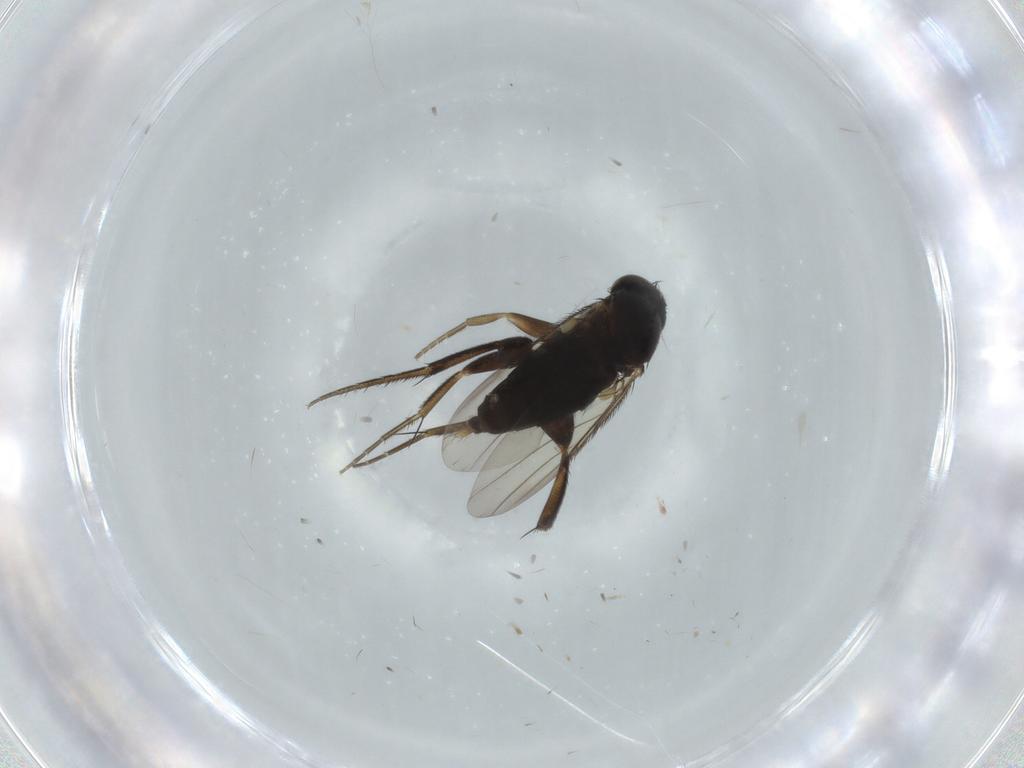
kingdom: Animalia
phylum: Arthropoda
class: Insecta
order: Diptera
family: Phoridae
